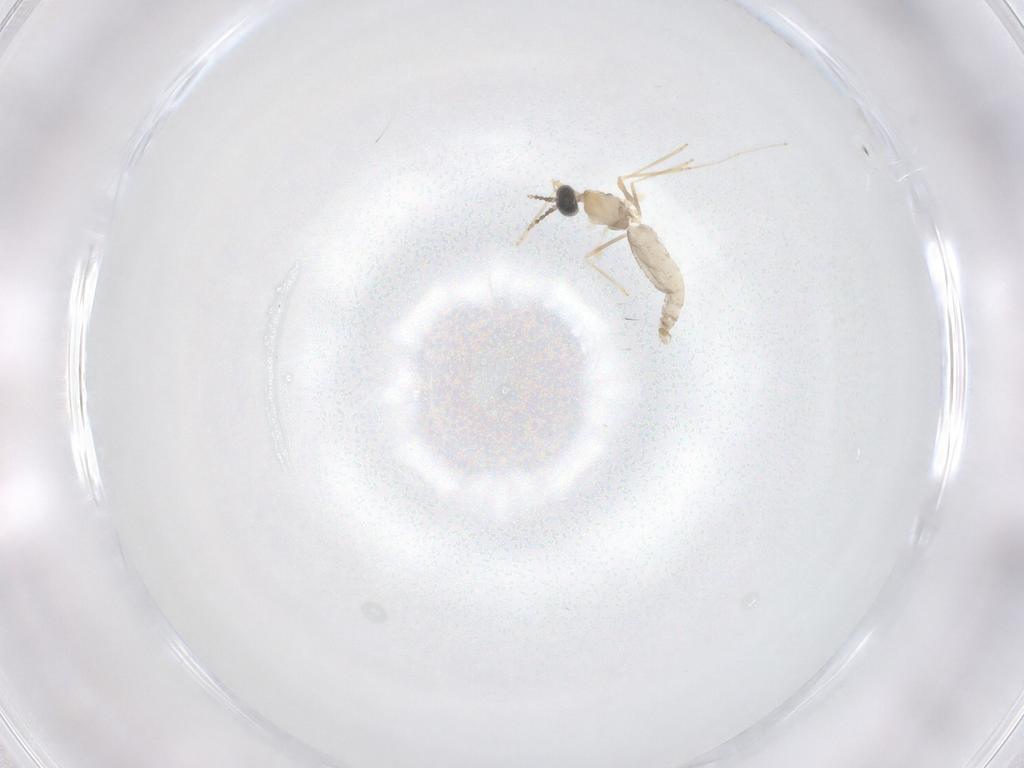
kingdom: Animalia
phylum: Arthropoda
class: Insecta
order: Diptera
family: Cecidomyiidae
